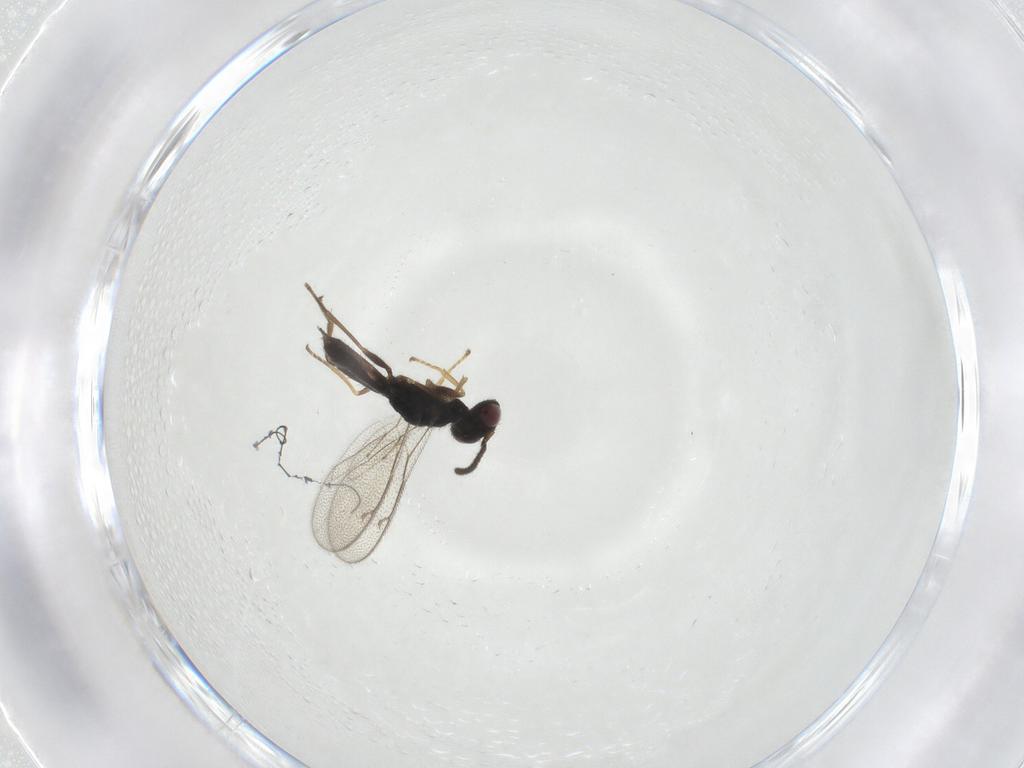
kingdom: Animalia
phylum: Arthropoda
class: Insecta
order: Hymenoptera
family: Pteromalidae
